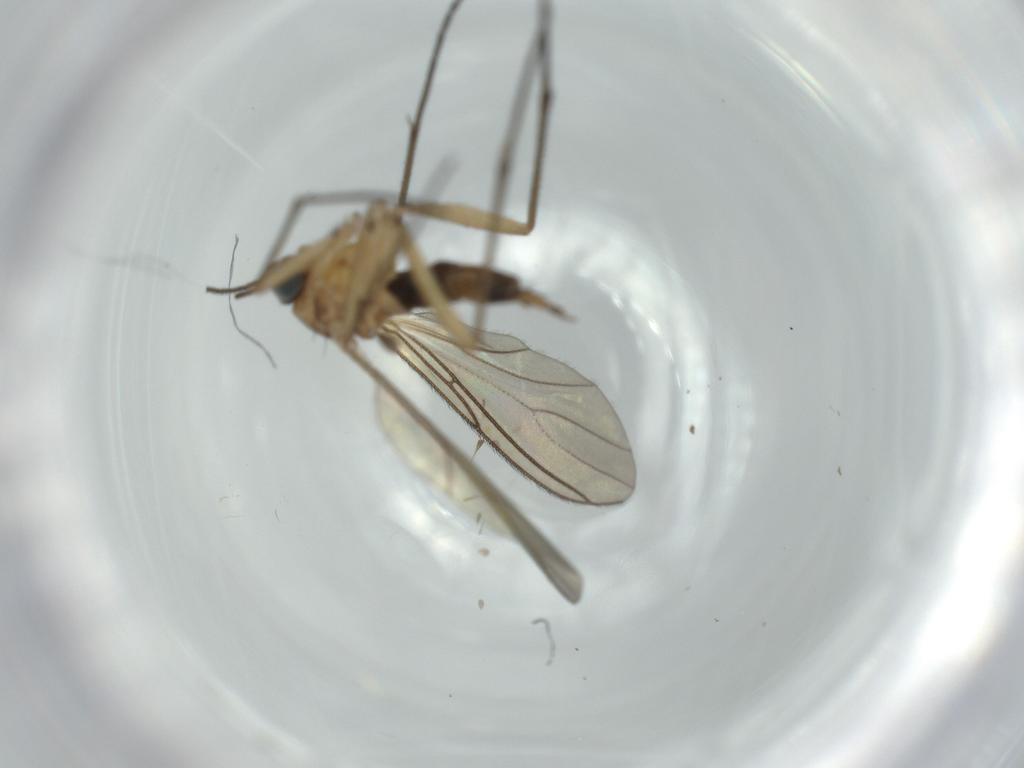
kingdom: Animalia
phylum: Arthropoda
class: Insecta
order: Diptera
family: Sciaridae
